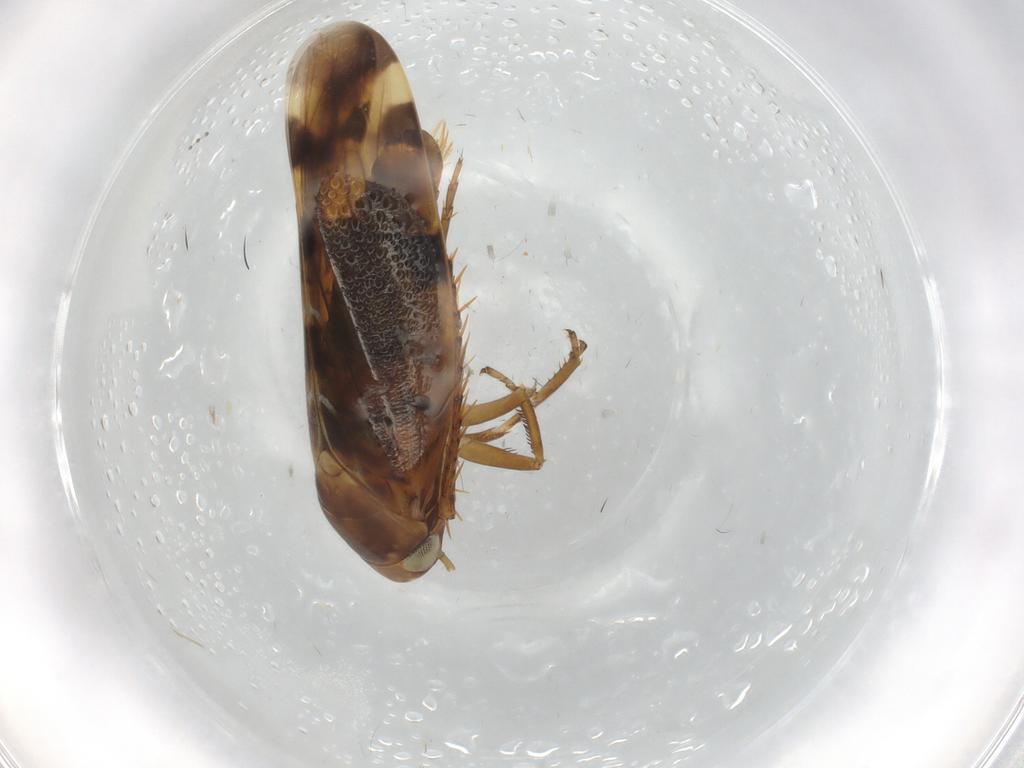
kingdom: Animalia
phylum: Arthropoda
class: Insecta
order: Hemiptera
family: Cicadellidae
